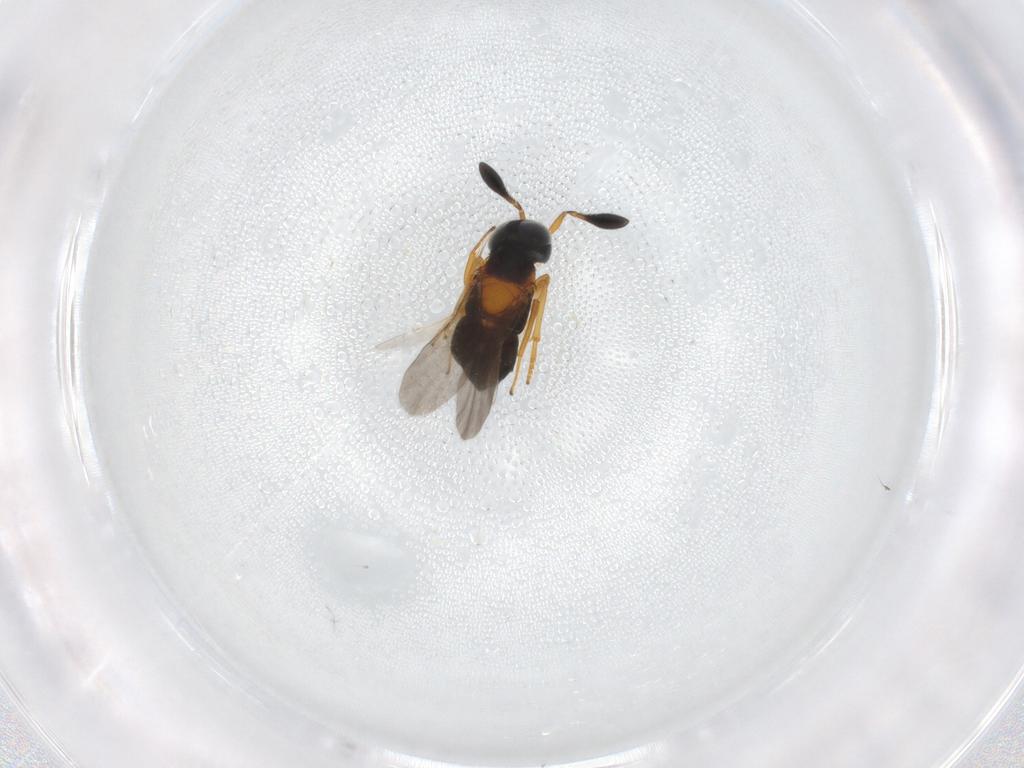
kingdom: Animalia
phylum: Arthropoda
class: Insecta
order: Hymenoptera
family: Encyrtidae
